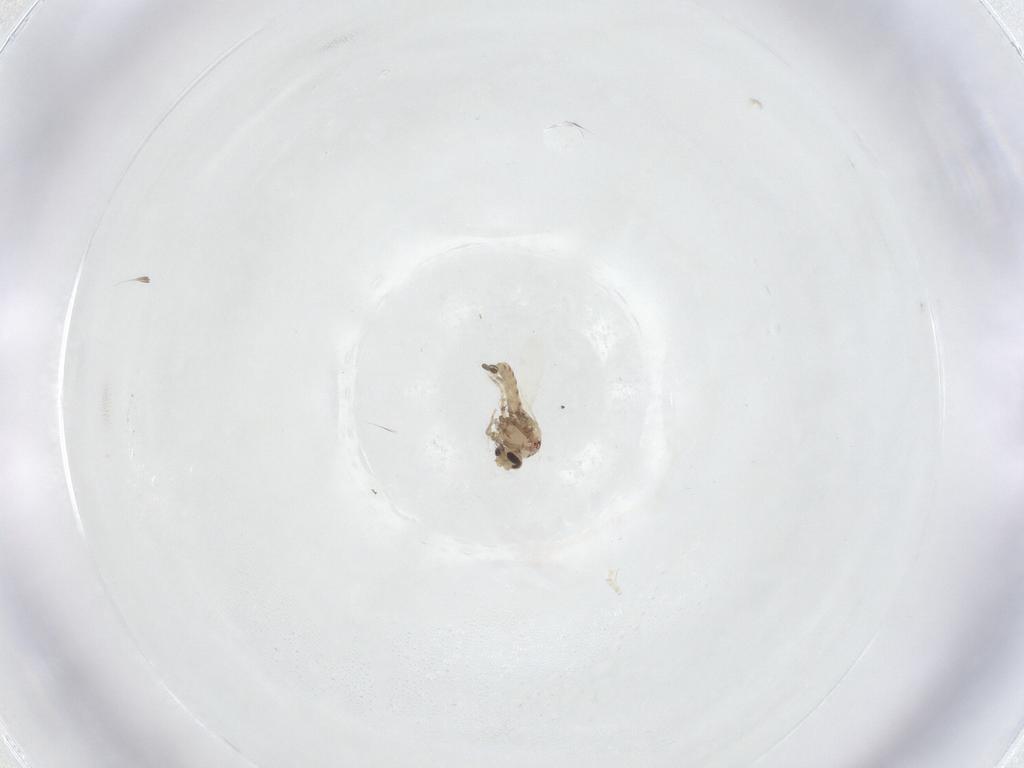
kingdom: Animalia
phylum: Arthropoda
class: Insecta
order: Diptera
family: Ceratopogonidae
